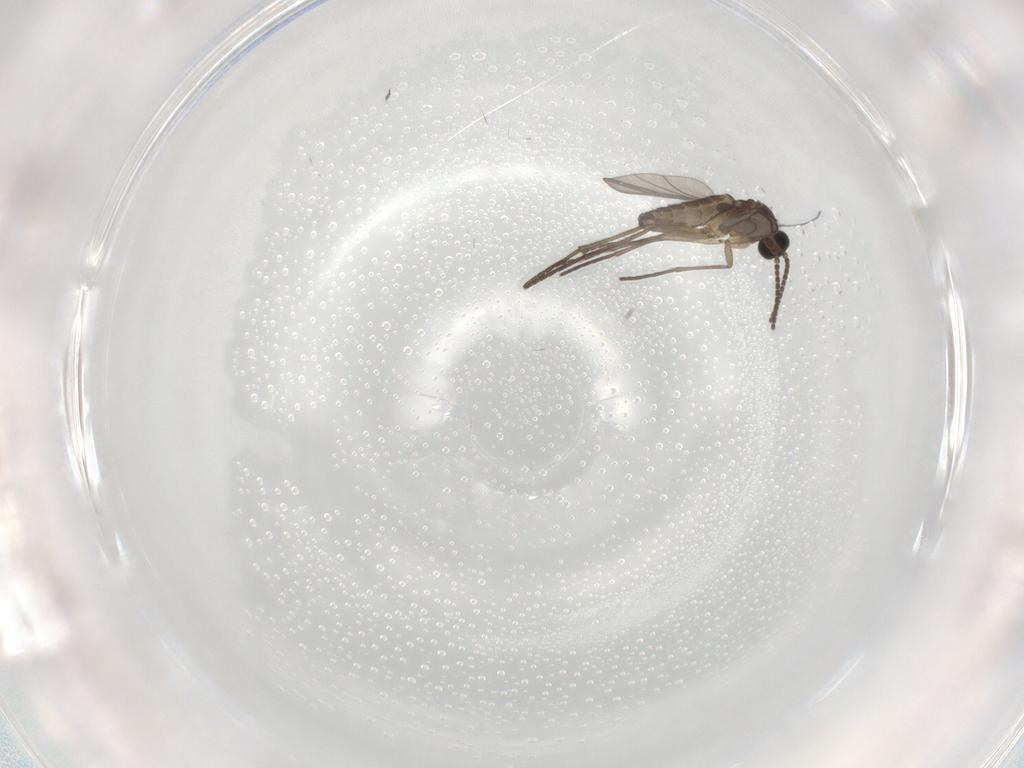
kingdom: Animalia
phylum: Arthropoda
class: Insecta
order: Diptera
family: Sciaridae
